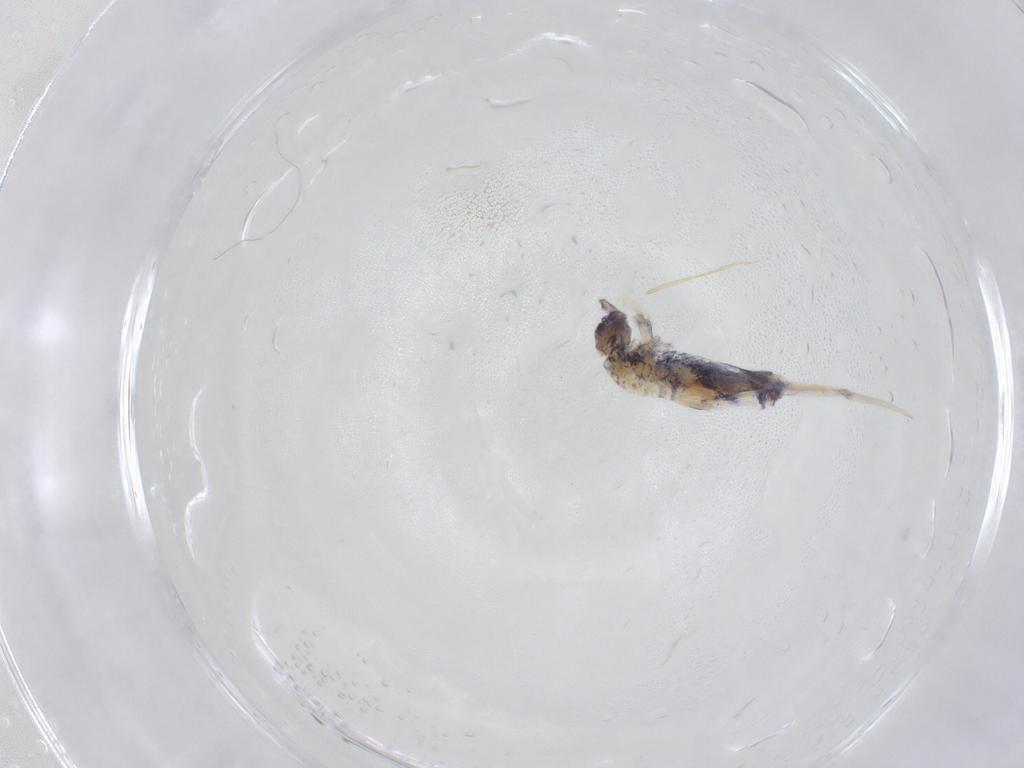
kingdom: Animalia
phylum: Arthropoda
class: Collembola
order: Entomobryomorpha
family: Entomobryidae
